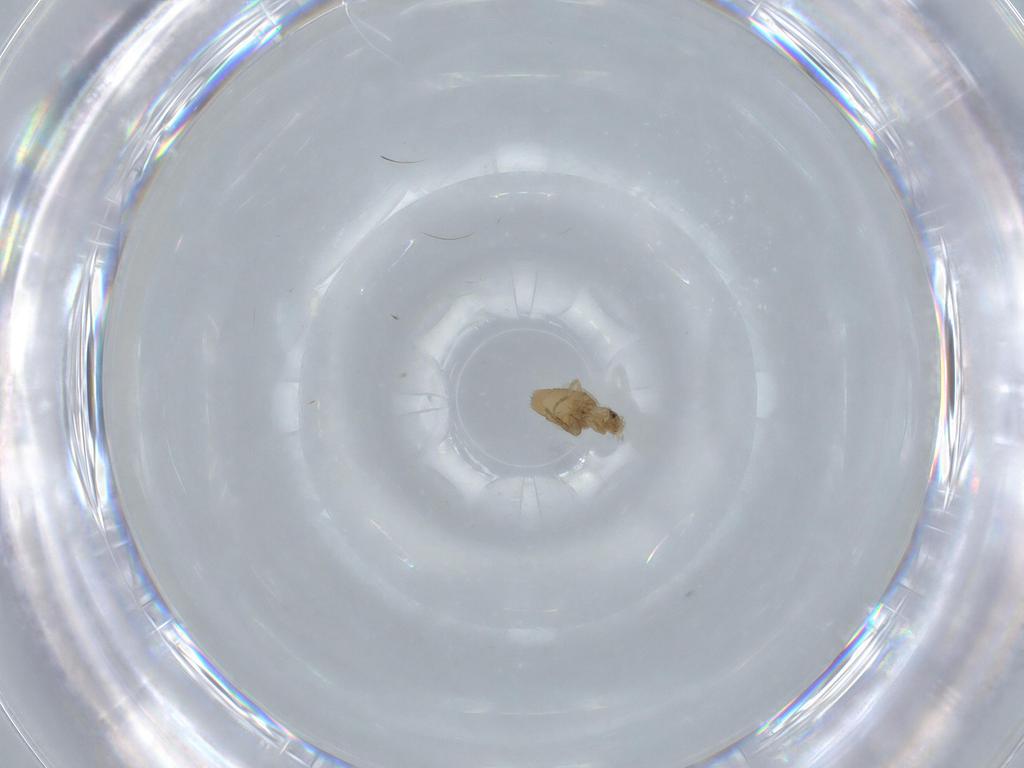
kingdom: Animalia
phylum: Arthropoda
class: Insecta
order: Diptera
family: Phoridae
